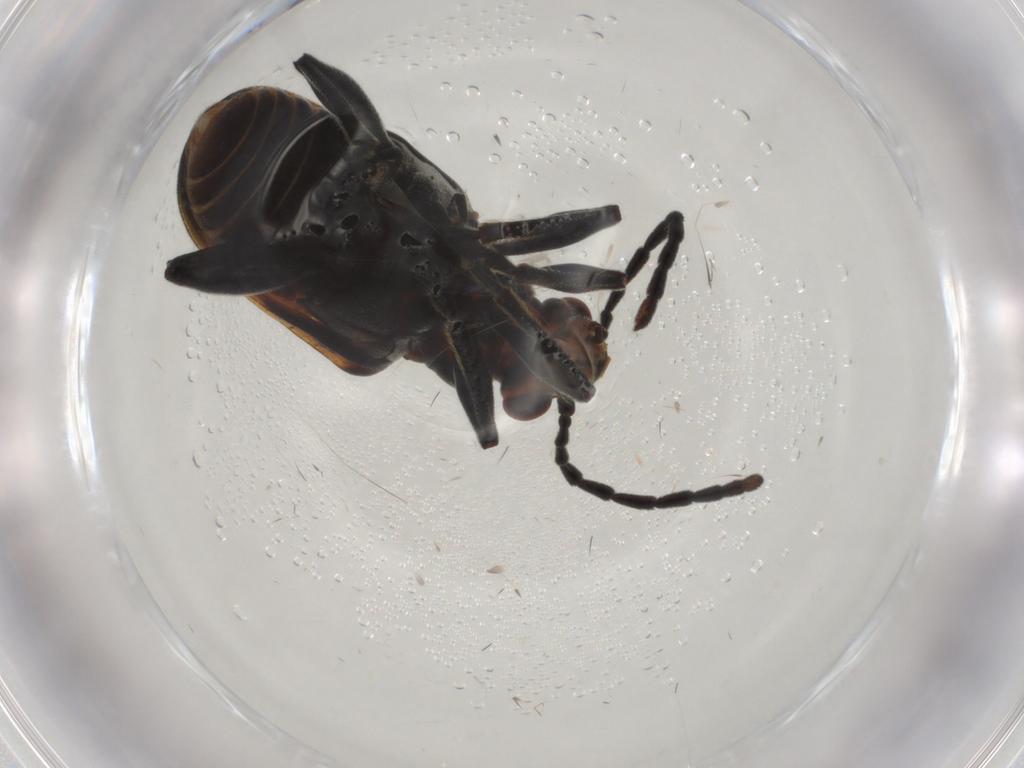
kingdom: Animalia
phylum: Arthropoda
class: Insecta
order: Coleoptera
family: Chrysomelidae
